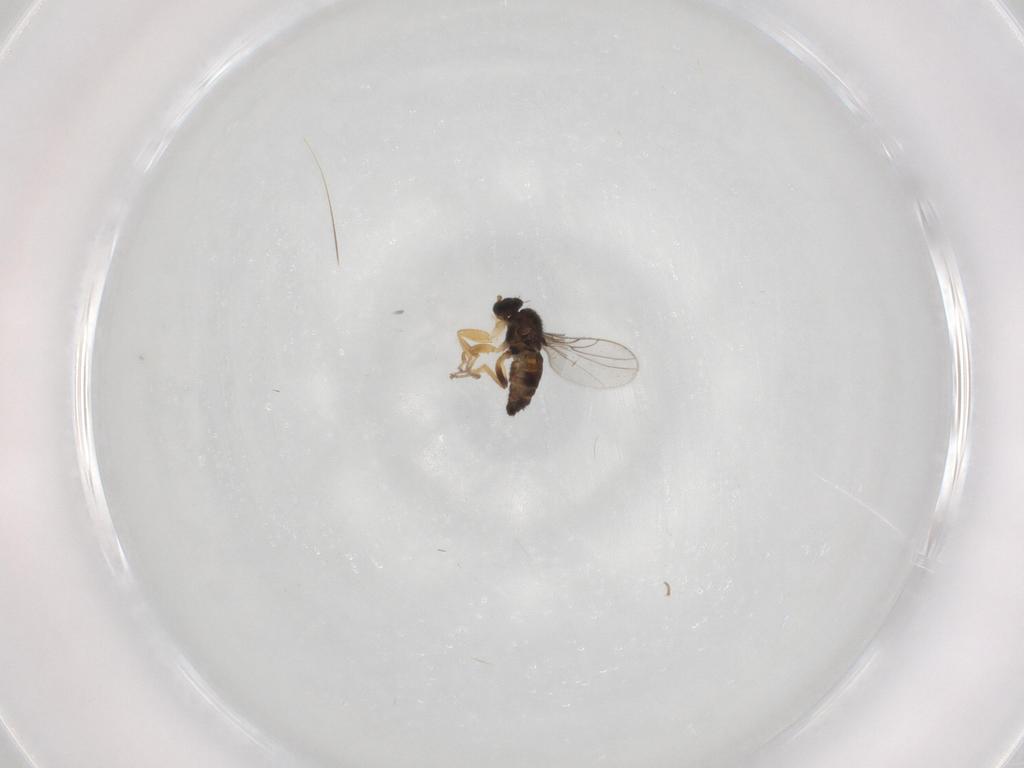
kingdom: Animalia
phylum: Arthropoda
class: Insecta
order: Diptera
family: Hybotidae
